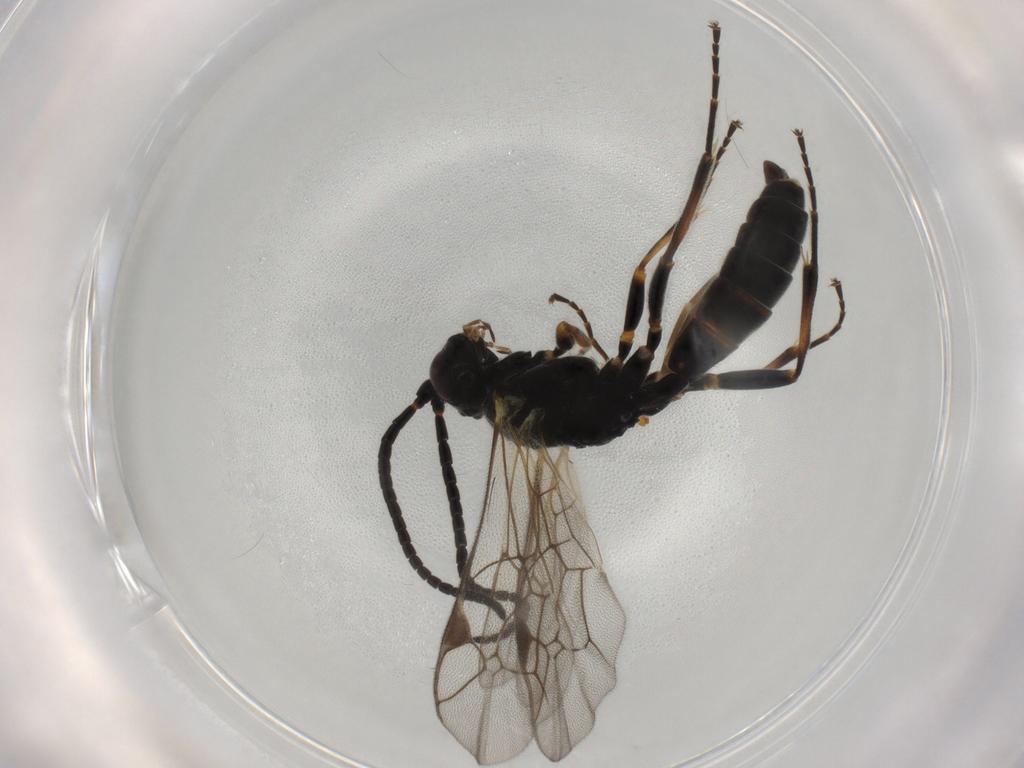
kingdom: Animalia
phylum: Arthropoda
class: Insecta
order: Hymenoptera
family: Ichneumonidae
